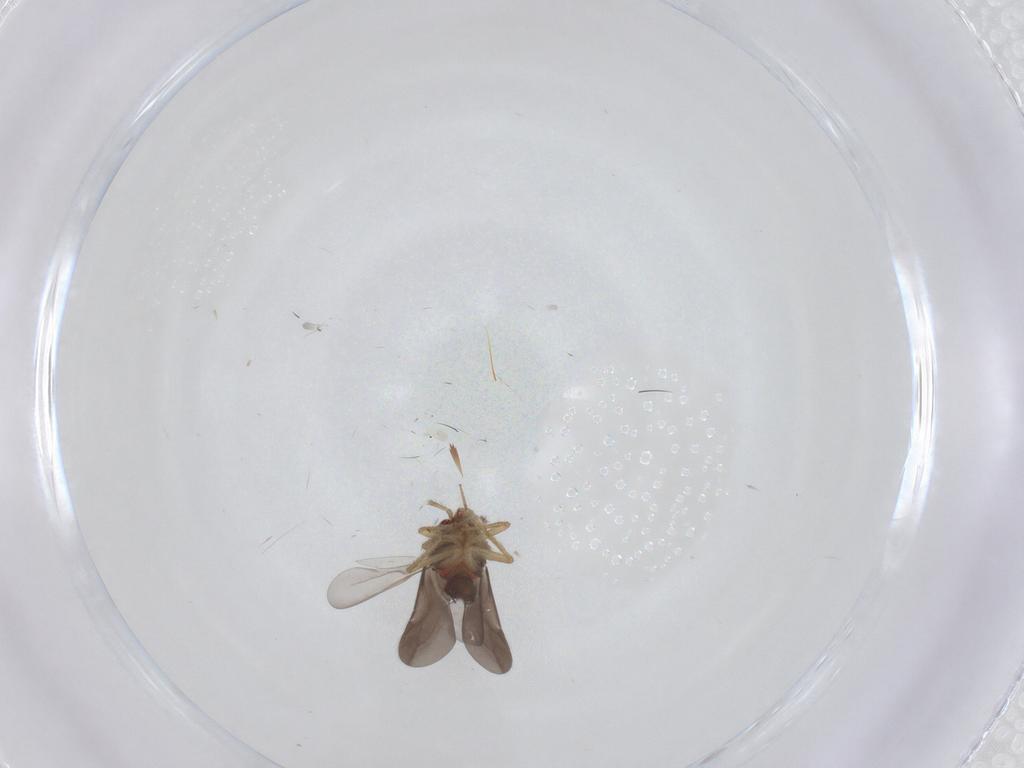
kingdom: Animalia
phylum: Arthropoda
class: Insecta
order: Hemiptera
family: Ceratocombidae
